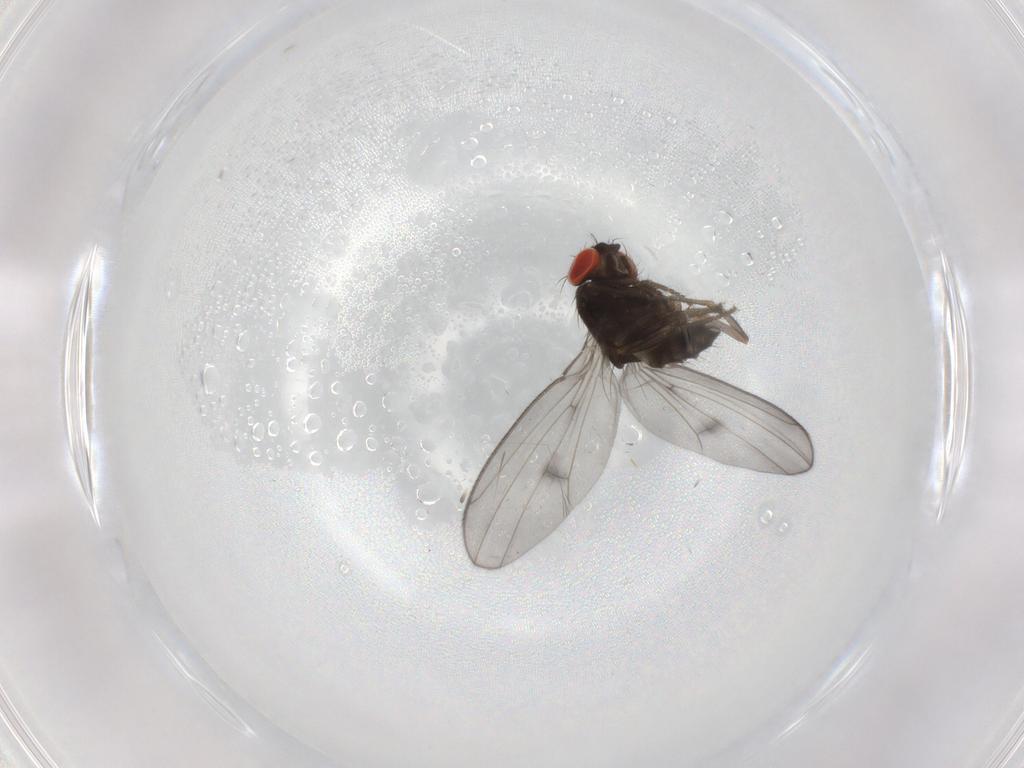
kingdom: Animalia
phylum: Arthropoda
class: Insecta
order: Diptera
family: Drosophilidae
